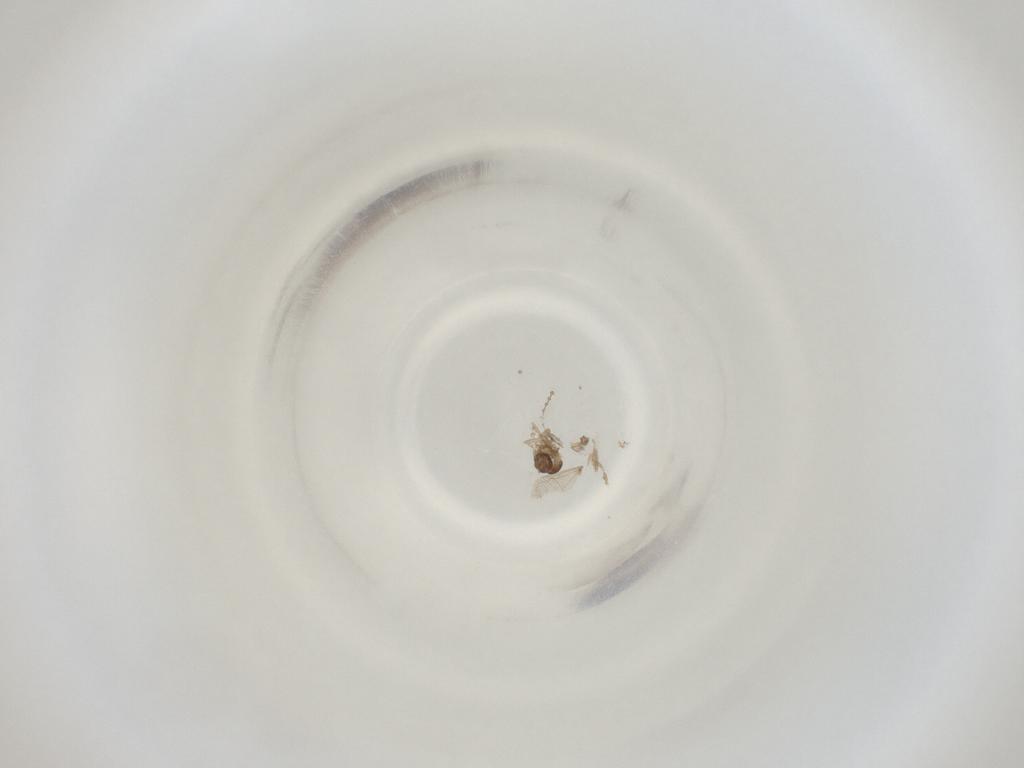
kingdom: Animalia
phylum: Arthropoda
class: Insecta
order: Diptera
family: Cecidomyiidae
